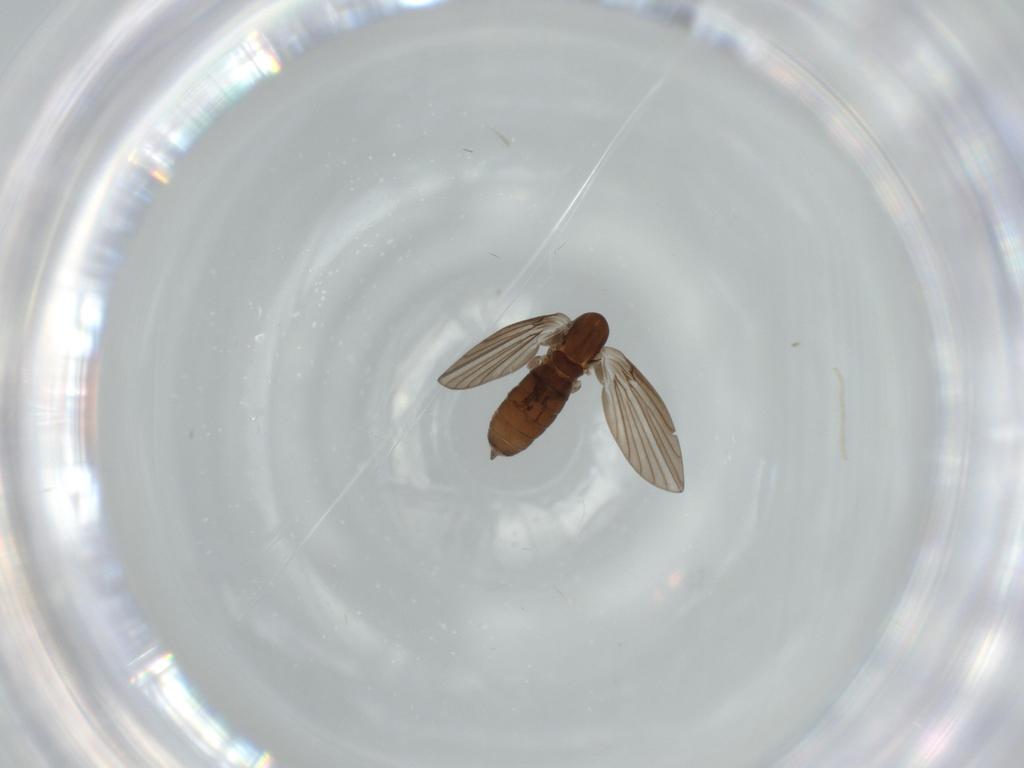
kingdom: Animalia
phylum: Arthropoda
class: Insecta
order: Diptera
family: Psychodidae
